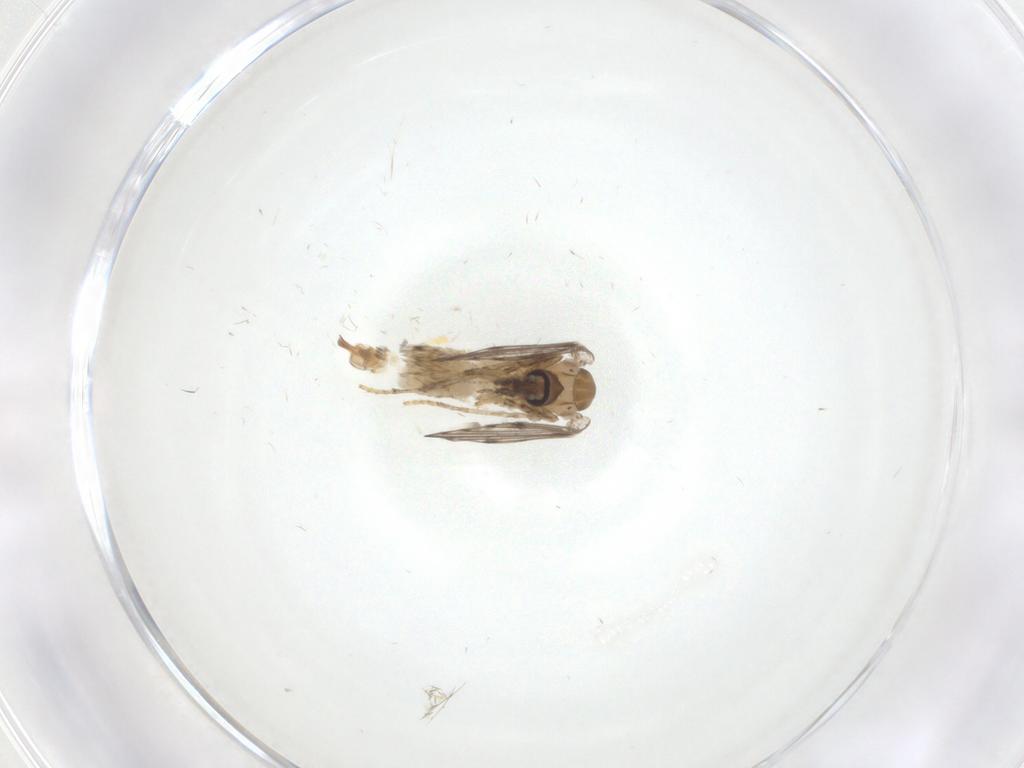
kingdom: Animalia
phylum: Arthropoda
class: Insecta
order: Diptera
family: Psychodidae
